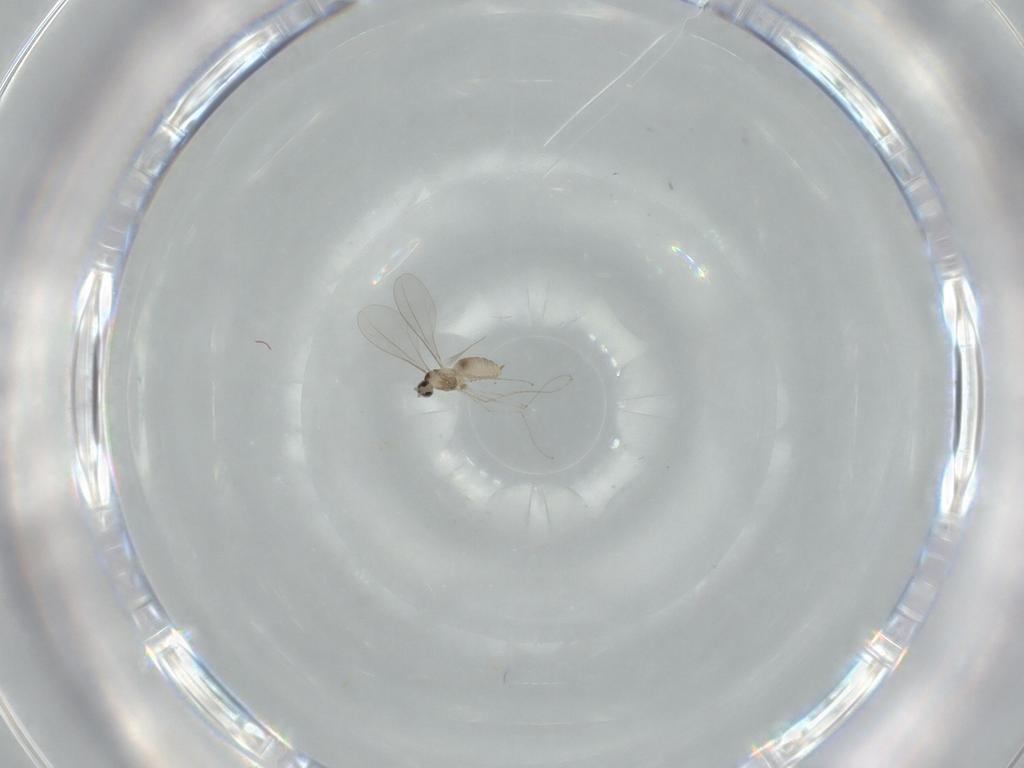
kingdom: Animalia
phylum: Arthropoda
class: Insecta
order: Diptera
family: Cecidomyiidae
